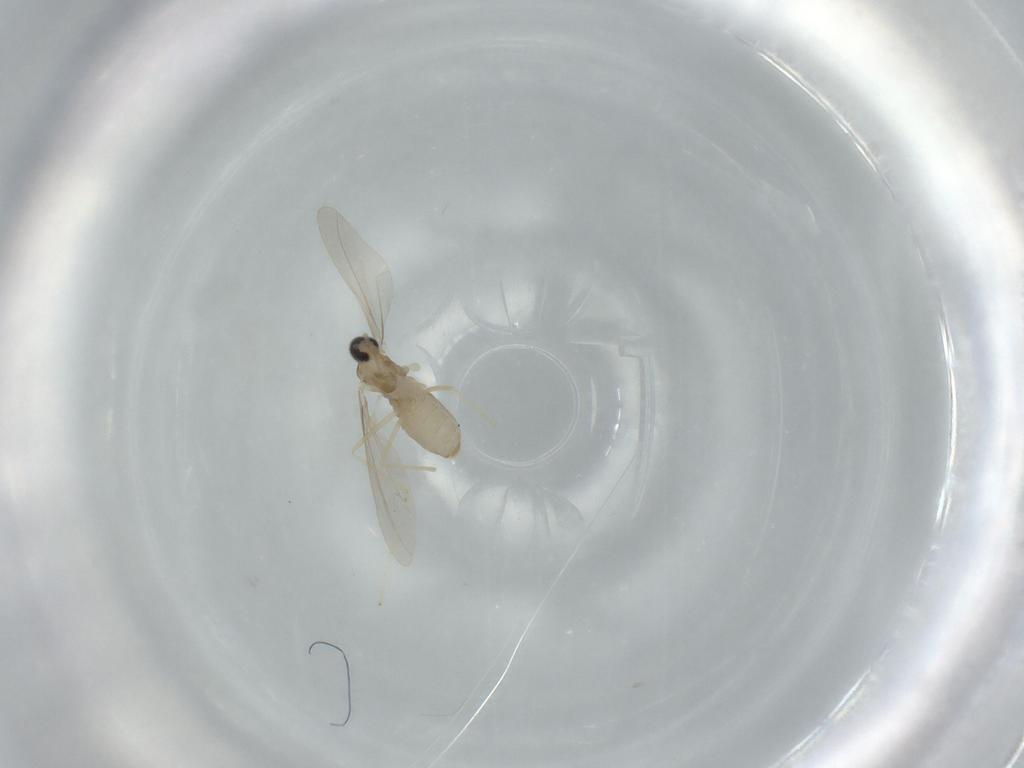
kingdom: Animalia
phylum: Arthropoda
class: Insecta
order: Diptera
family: Cecidomyiidae
